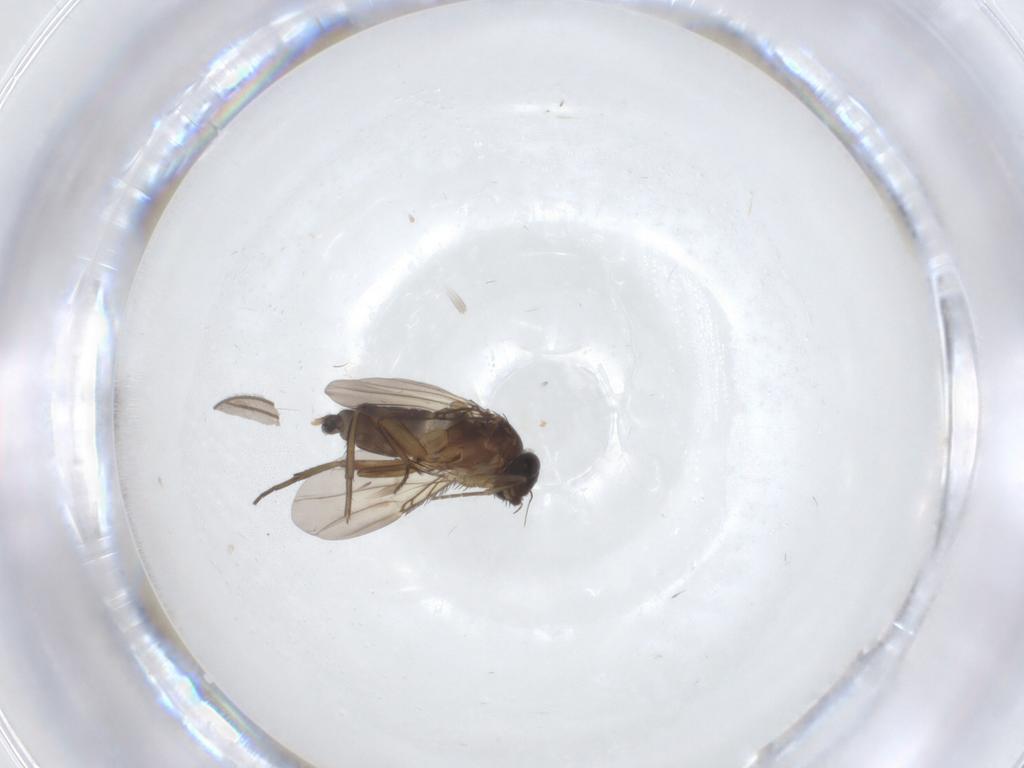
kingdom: Animalia
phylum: Arthropoda
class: Insecta
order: Diptera
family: Phoridae
